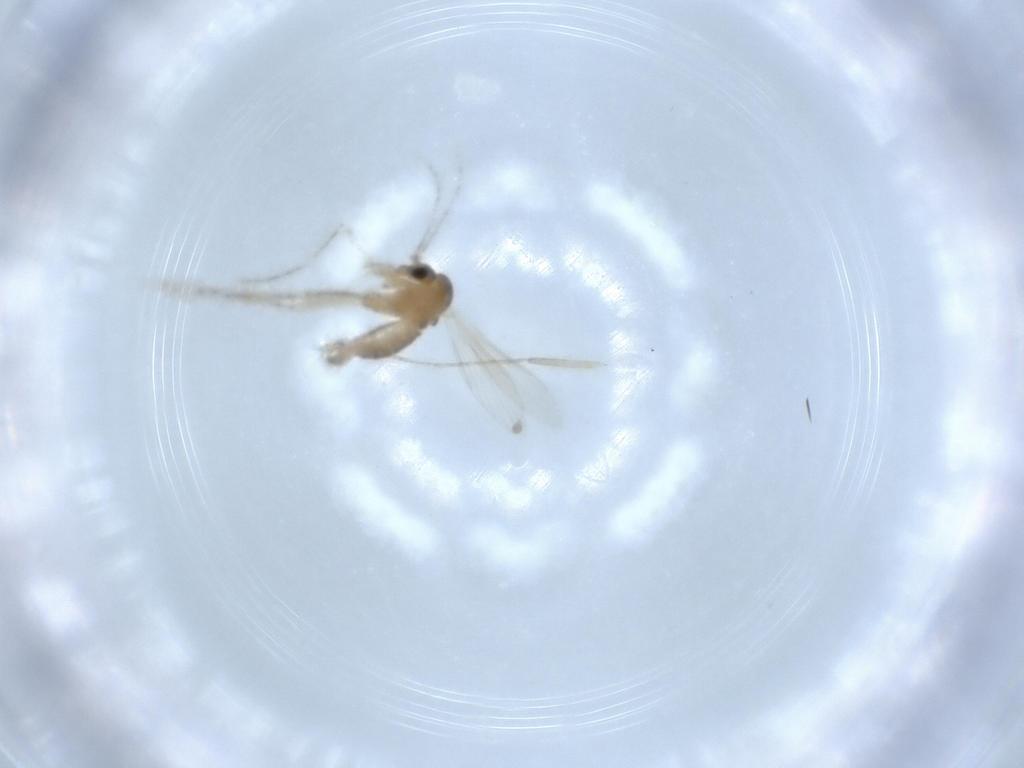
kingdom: Animalia
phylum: Arthropoda
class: Insecta
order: Diptera
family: Psychodidae
